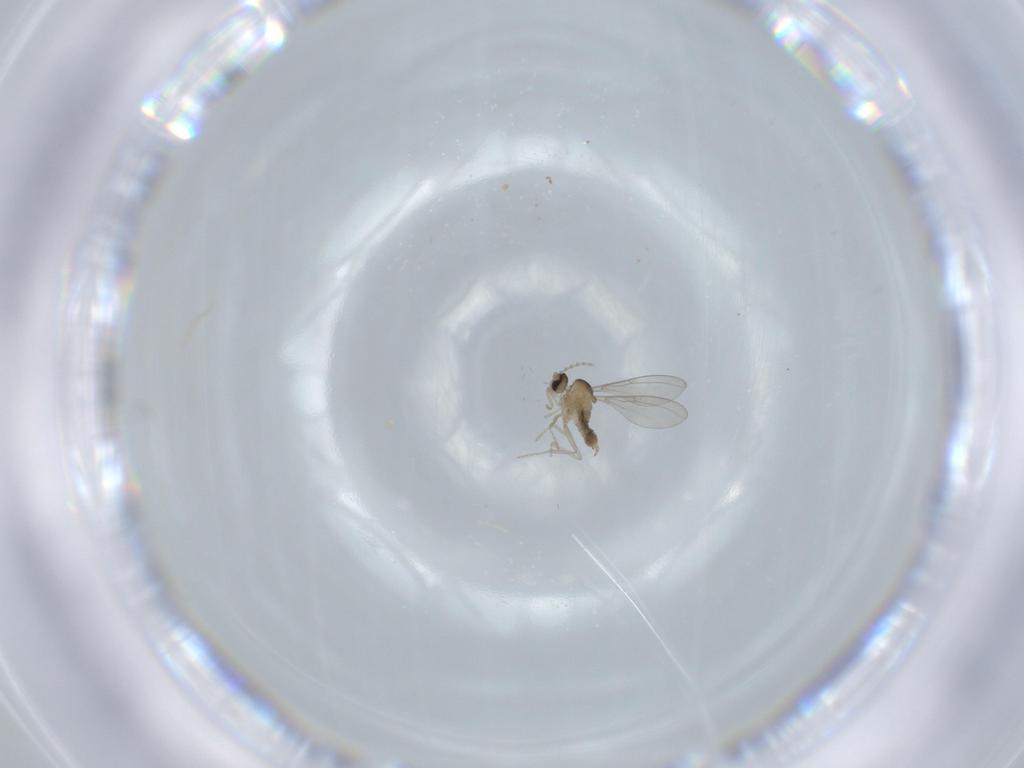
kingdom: Animalia
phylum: Arthropoda
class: Insecta
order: Diptera
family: Cecidomyiidae
